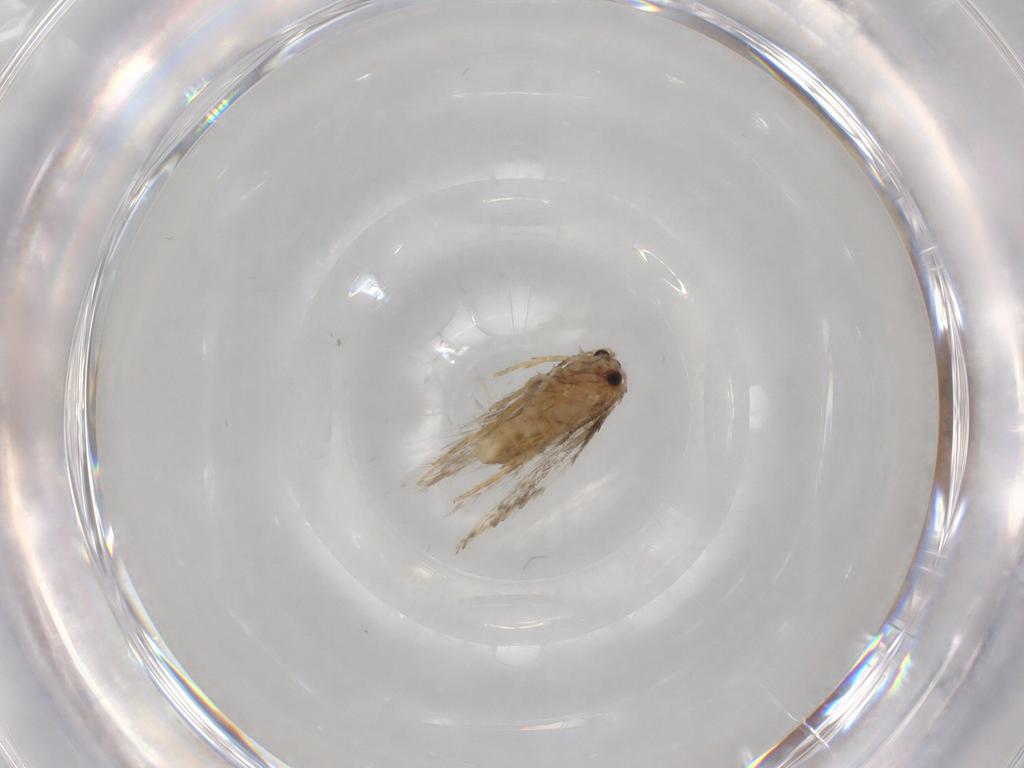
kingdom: Animalia
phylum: Arthropoda
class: Insecta
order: Lepidoptera
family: Nepticulidae
